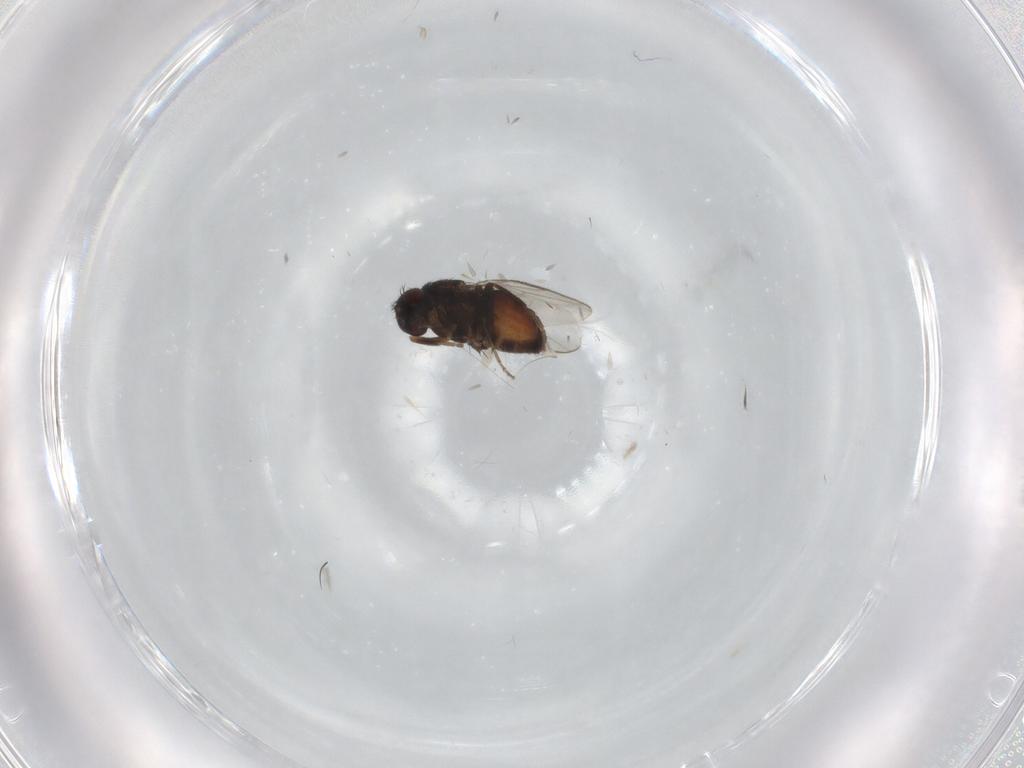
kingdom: Animalia
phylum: Arthropoda
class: Insecta
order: Diptera
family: Sphaeroceridae
